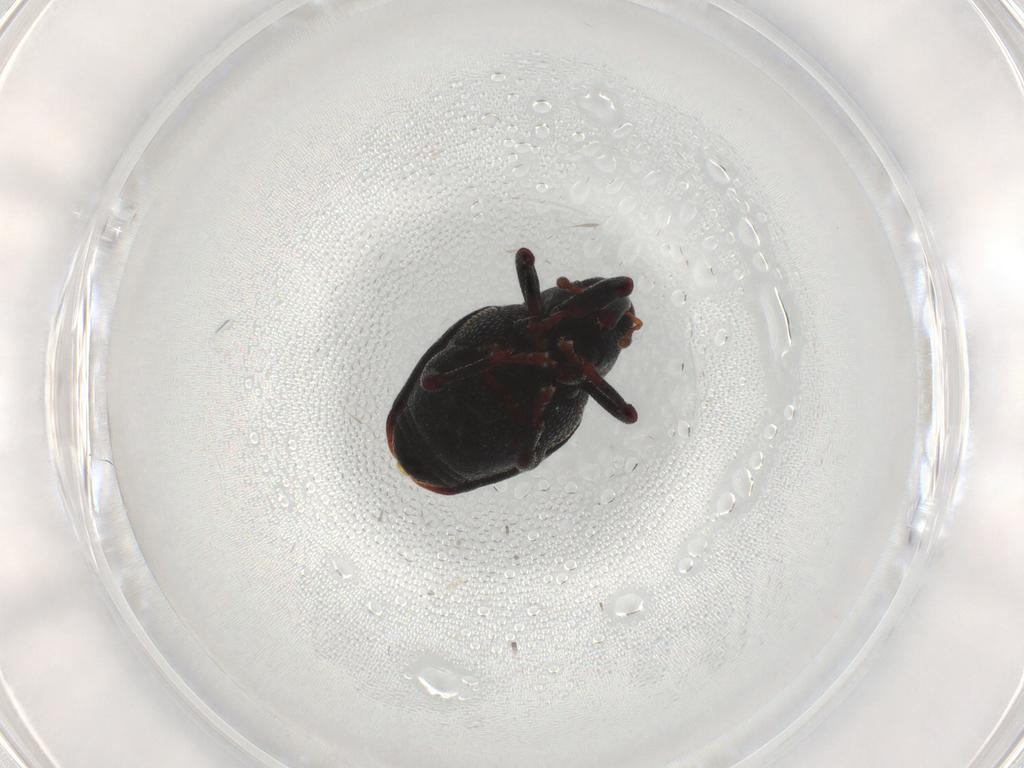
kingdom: Animalia
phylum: Arthropoda
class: Insecta
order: Coleoptera
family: Curculionidae
